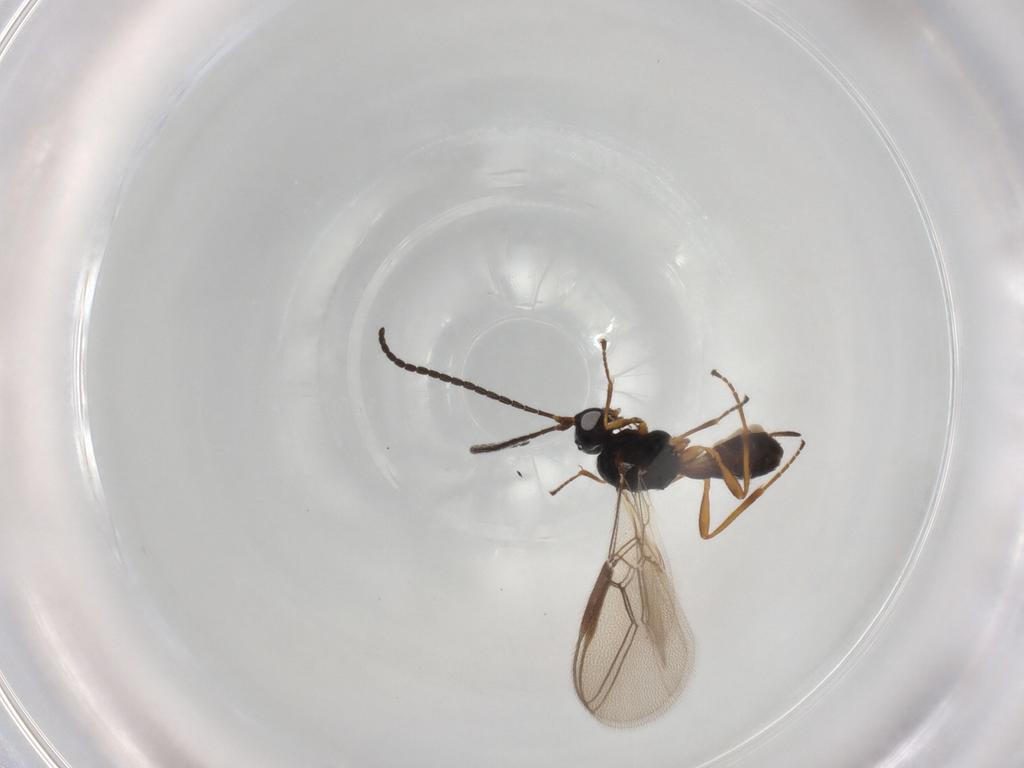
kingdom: Animalia
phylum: Arthropoda
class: Insecta
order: Hymenoptera
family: Braconidae
